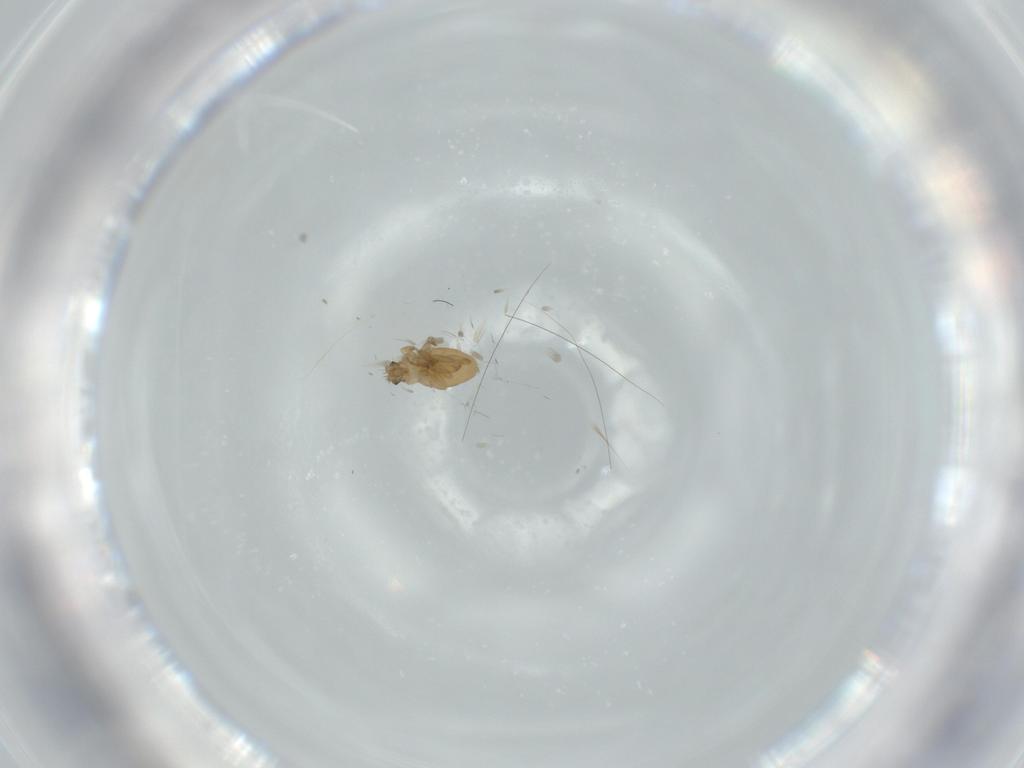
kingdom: Animalia
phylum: Arthropoda
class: Insecta
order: Diptera
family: Phoridae
